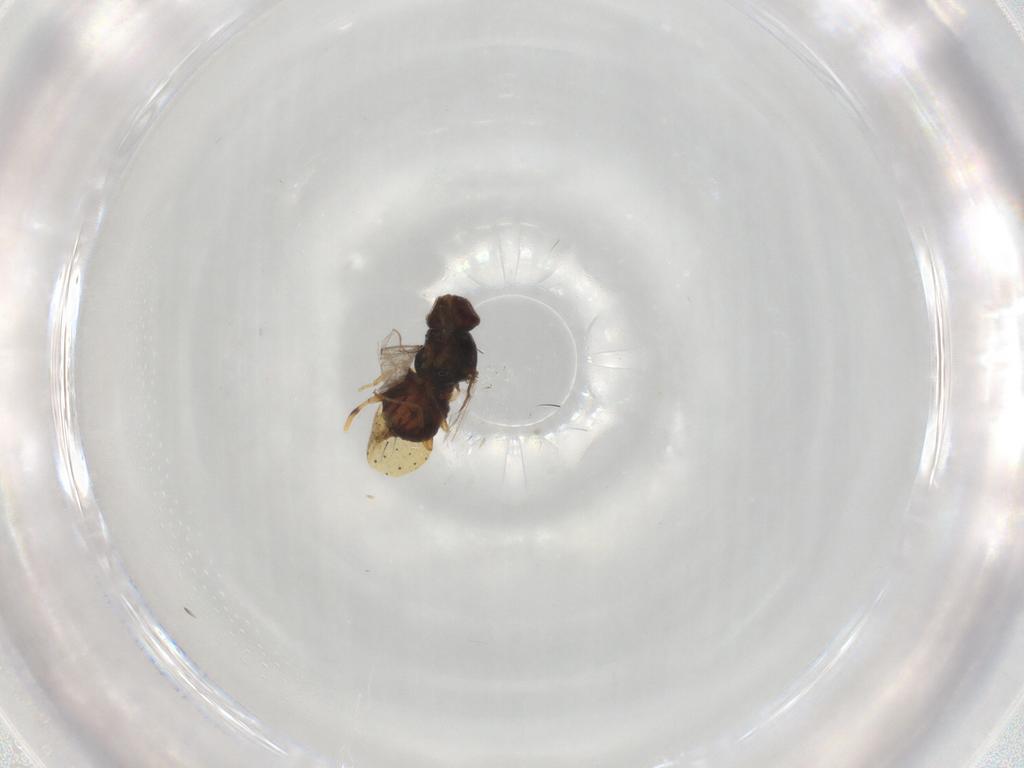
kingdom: Animalia
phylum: Arthropoda
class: Insecta
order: Diptera
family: Chloropidae
